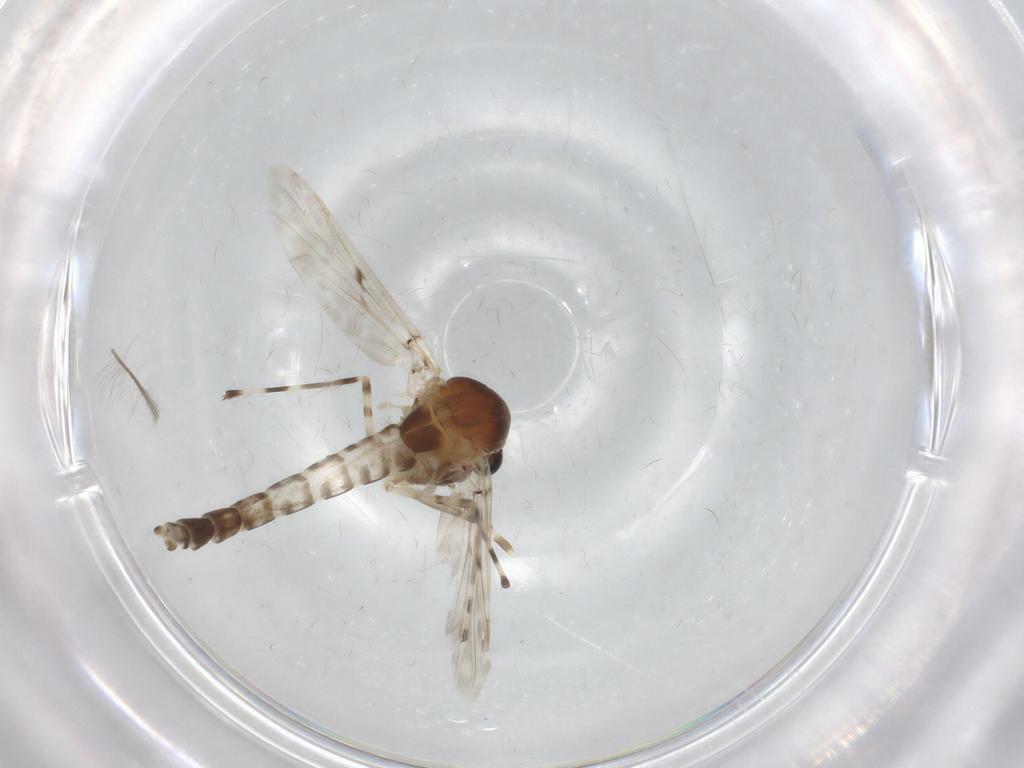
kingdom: Animalia
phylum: Arthropoda
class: Insecta
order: Diptera
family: Chironomidae
